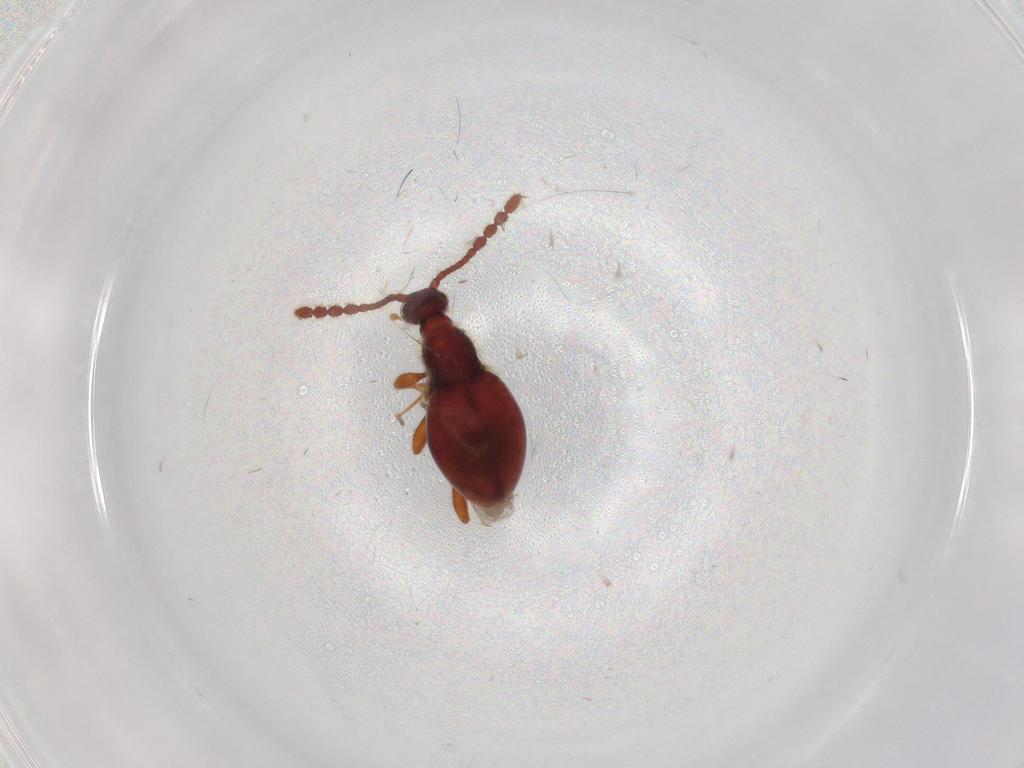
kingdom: Animalia
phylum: Arthropoda
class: Insecta
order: Coleoptera
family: Staphylinidae
